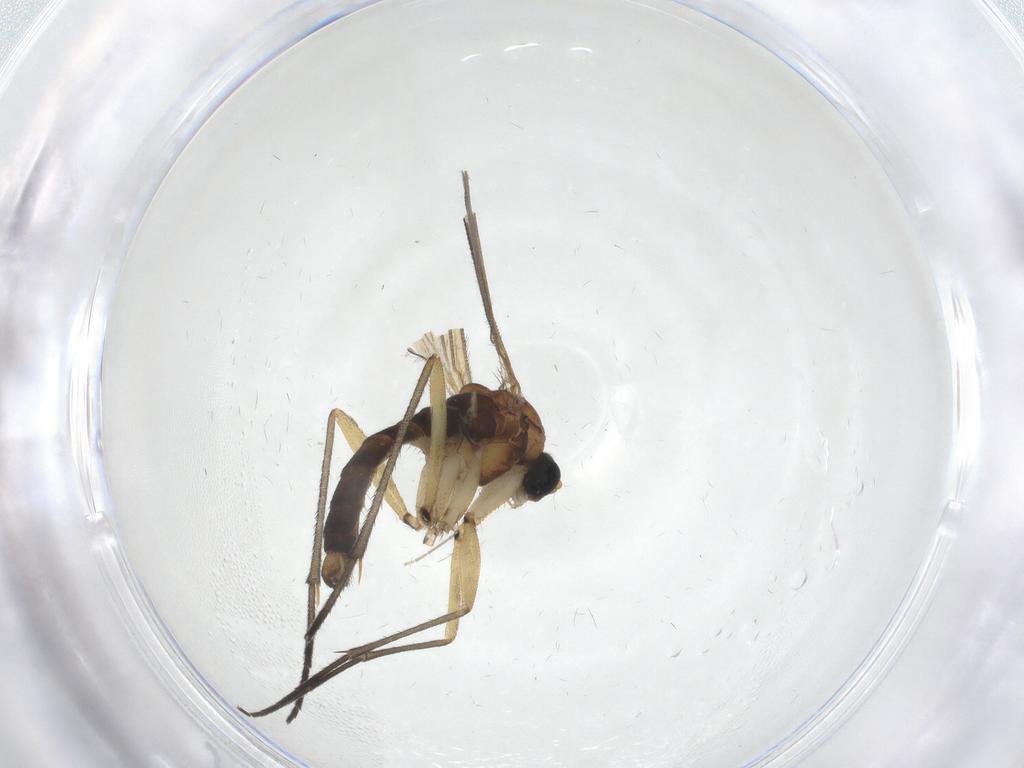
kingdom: Animalia
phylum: Arthropoda
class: Insecta
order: Diptera
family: Sciaridae
